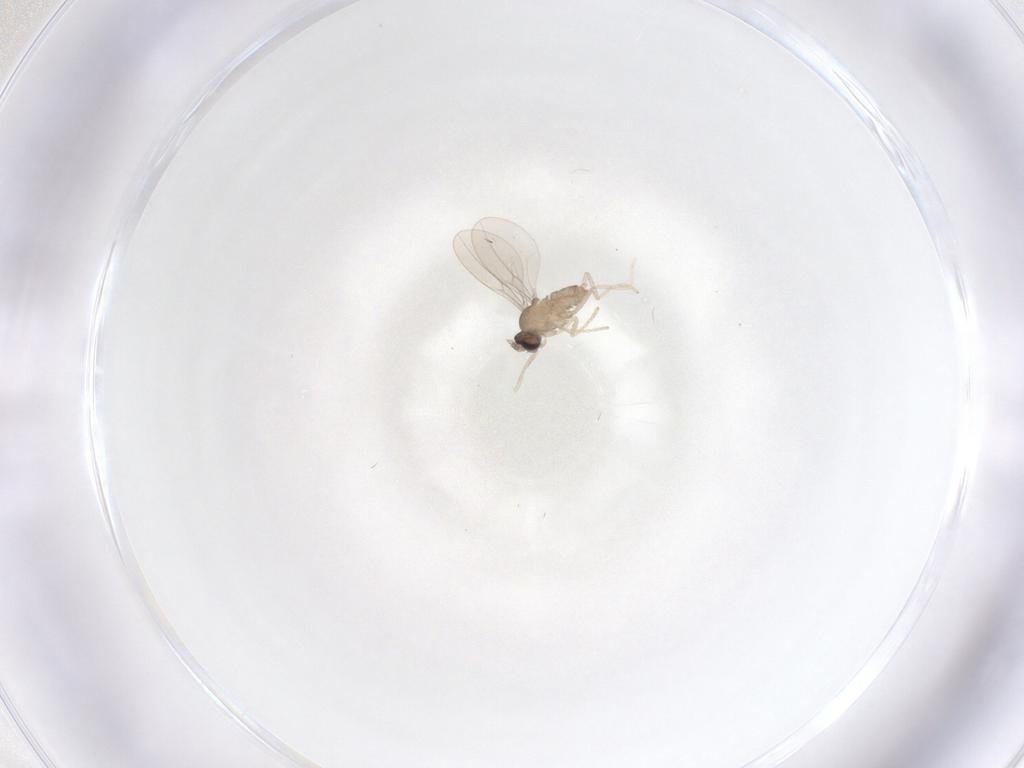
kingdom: Animalia
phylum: Arthropoda
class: Insecta
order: Diptera
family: Cecidomyiidae
